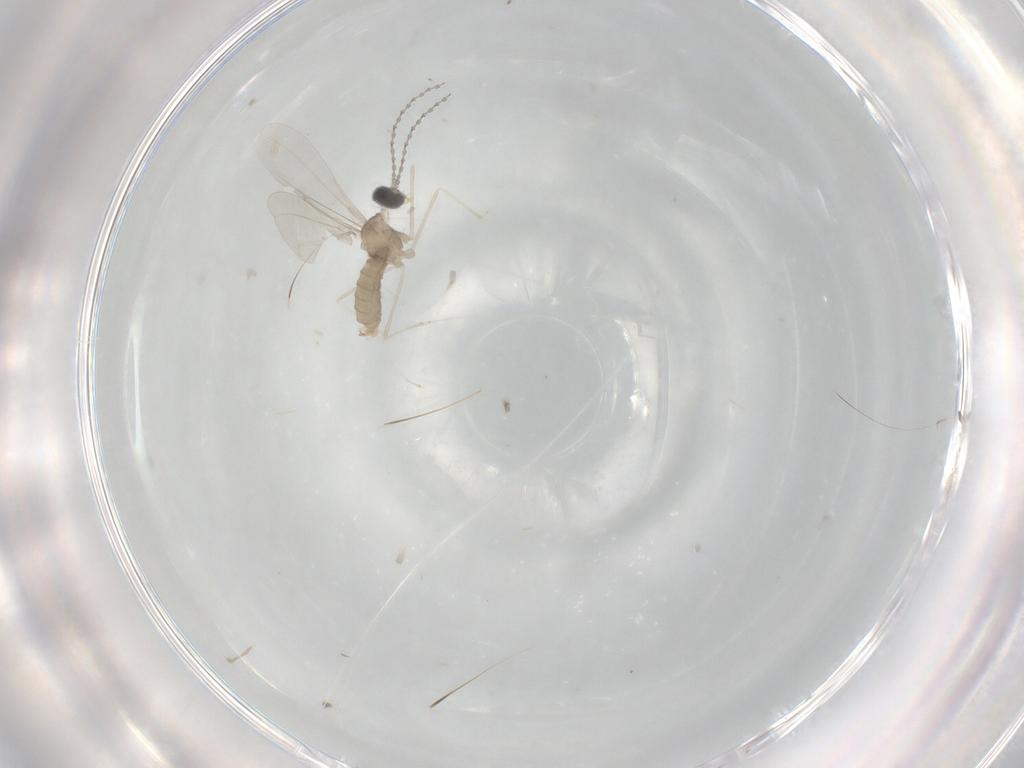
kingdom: Animalia
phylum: Arthropoda
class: Insecta
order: Diptera
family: Cecidomyiidae
